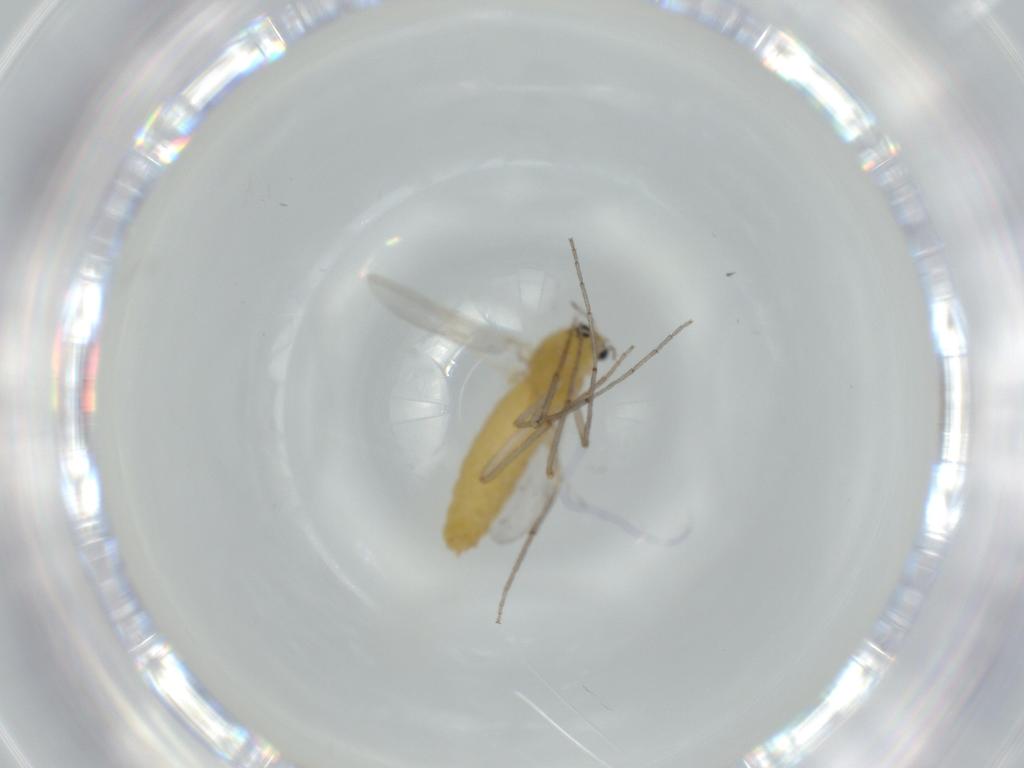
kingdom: Animalia
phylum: Arthropoda
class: Insecta
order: Diptera
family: Chironomidae
